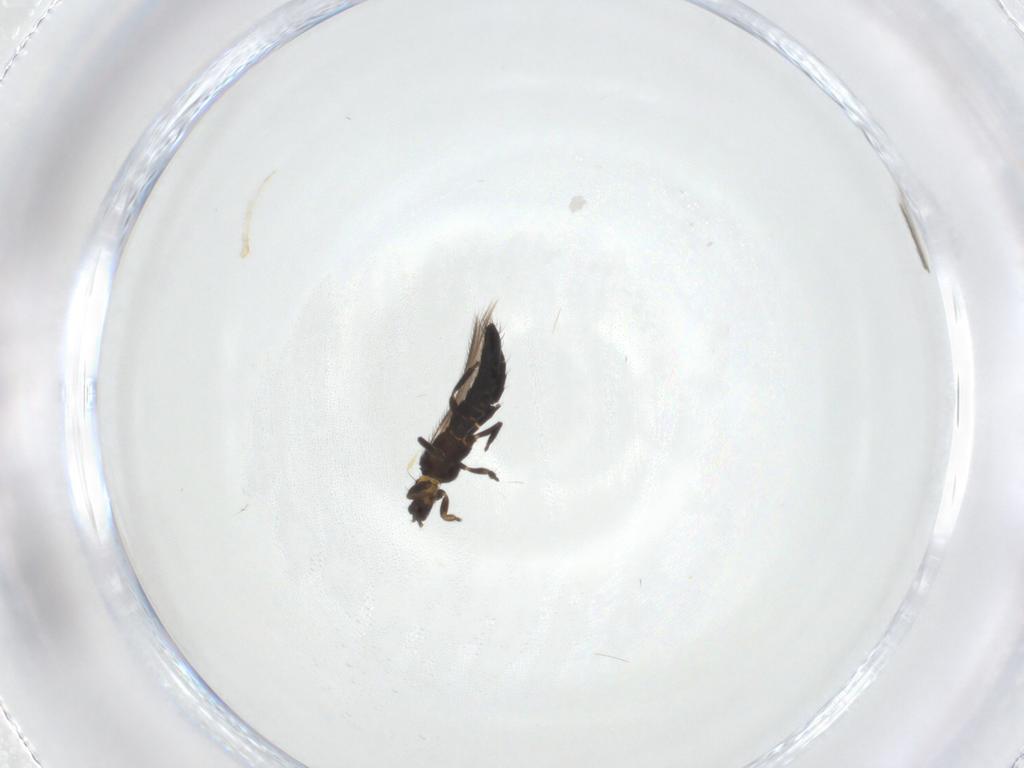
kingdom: Animalia
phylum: Arthropoda
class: Insecta
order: Thysanoptera
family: Thripidae
